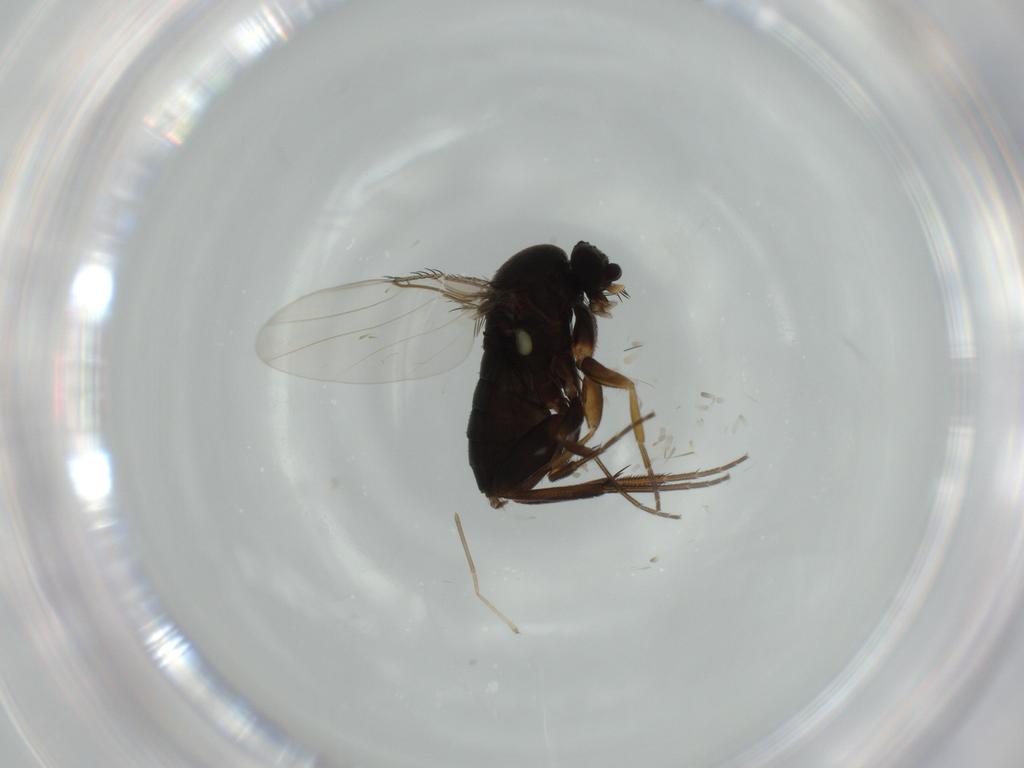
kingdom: Animalia
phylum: Arthropoda
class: Insecta
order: Diptera
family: Phoridae
